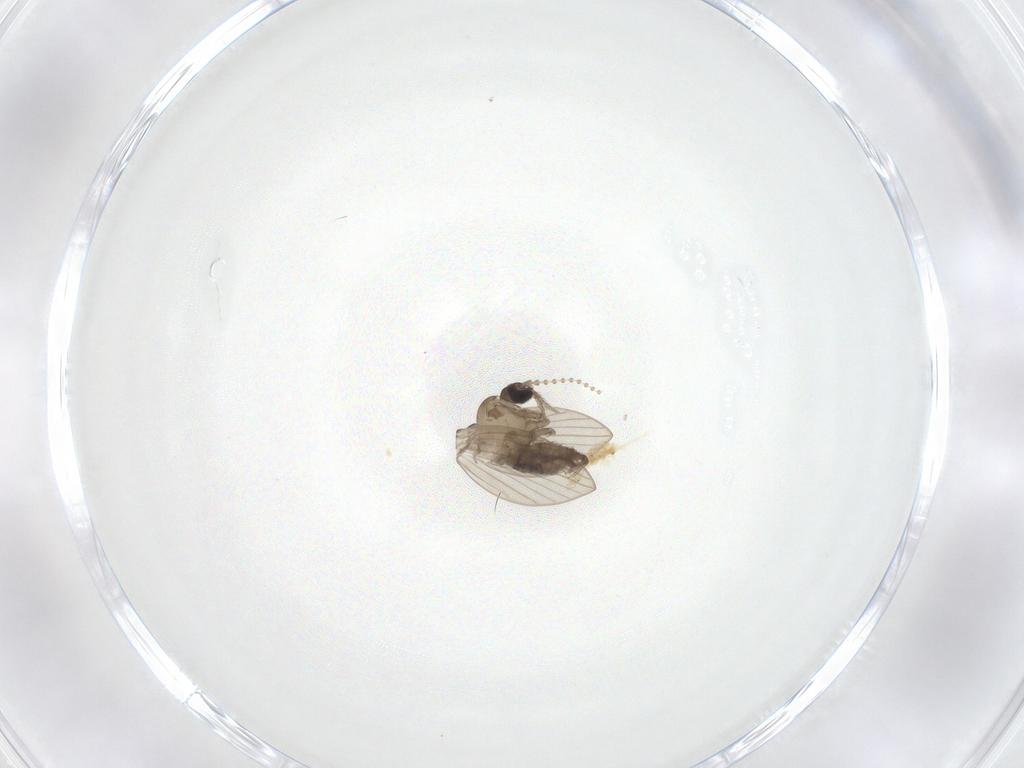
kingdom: Animalia
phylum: Arthropoda
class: Insecta
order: Diptera
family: Psychodidae
